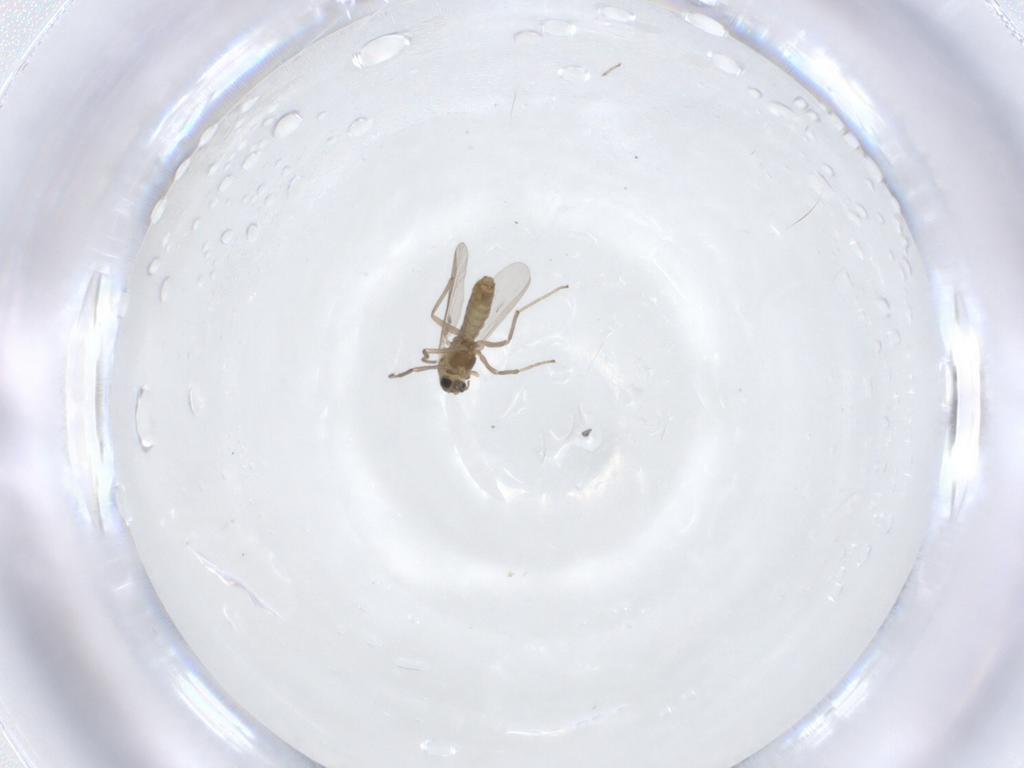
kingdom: Animalia
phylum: Arthropoda
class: Insecta
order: Diptera
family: Chironomidae
